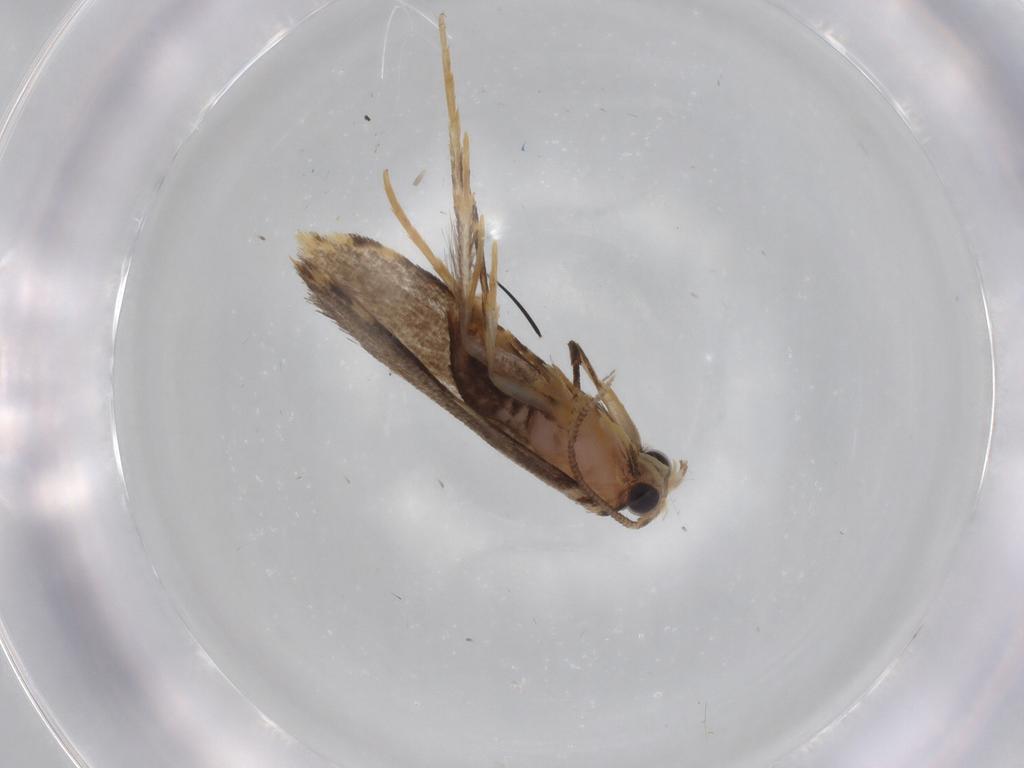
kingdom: Animalia
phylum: Arthropoda
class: Insecta
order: Lepidoptera
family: Tineidae
